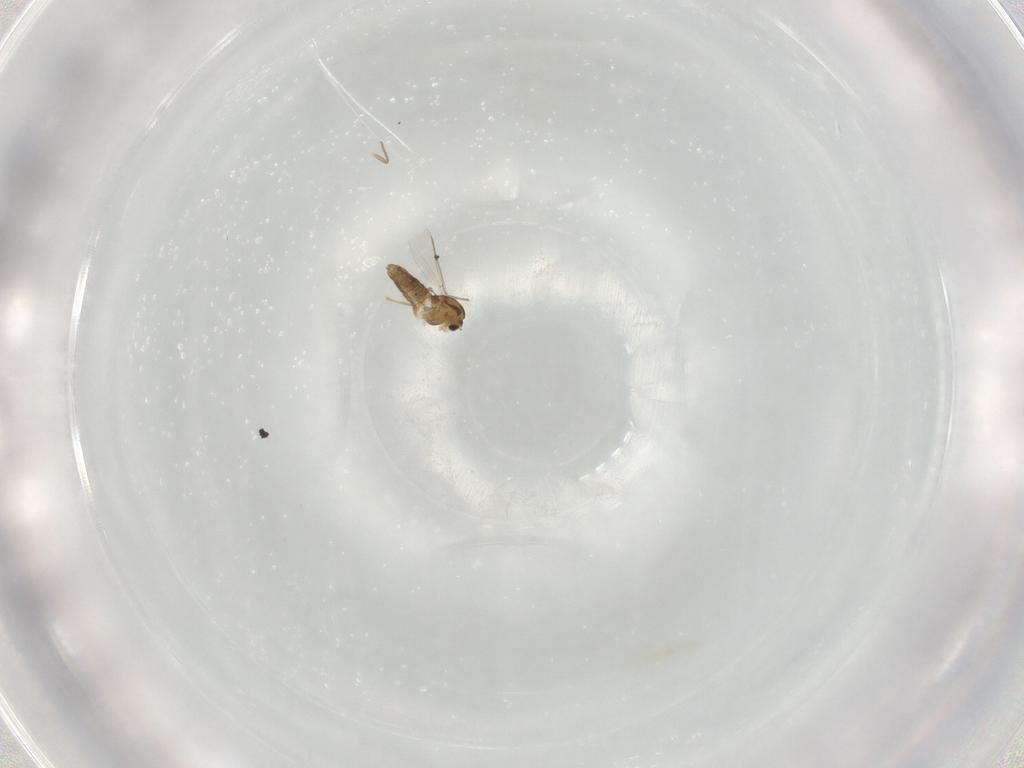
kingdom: Animalia
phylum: Arthropoda
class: Insecta
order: Diptera
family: Chironomidae
